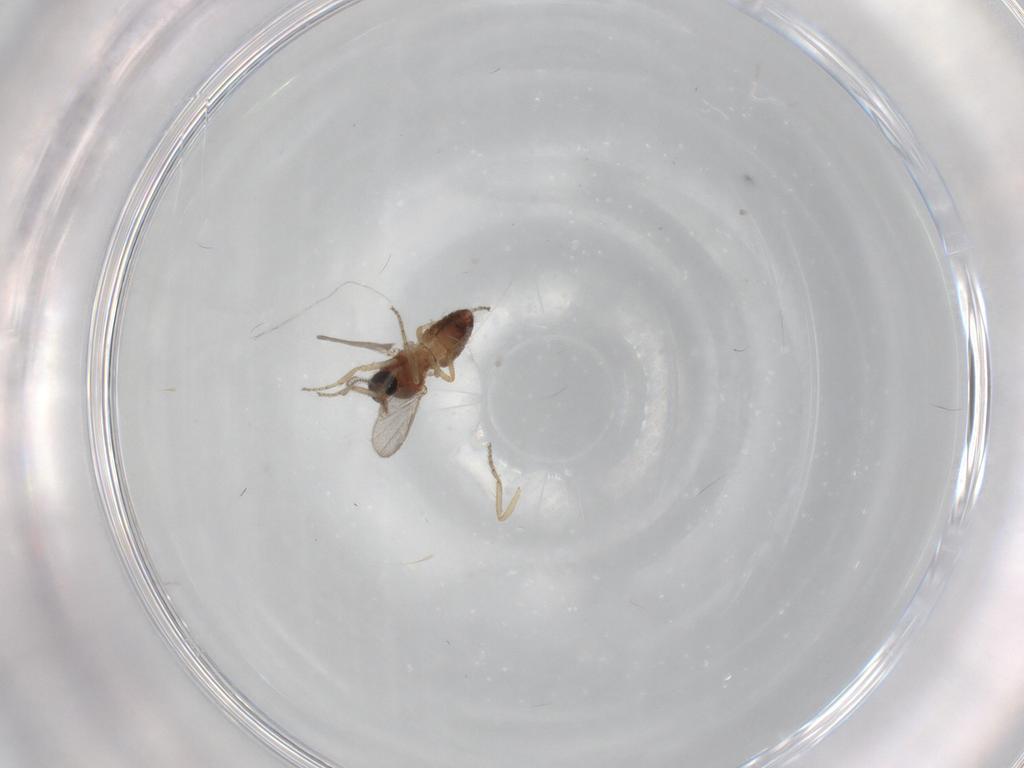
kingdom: Animalia
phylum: Arthropoda
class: Insecta
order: Diptera
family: Ceratopogonidae
